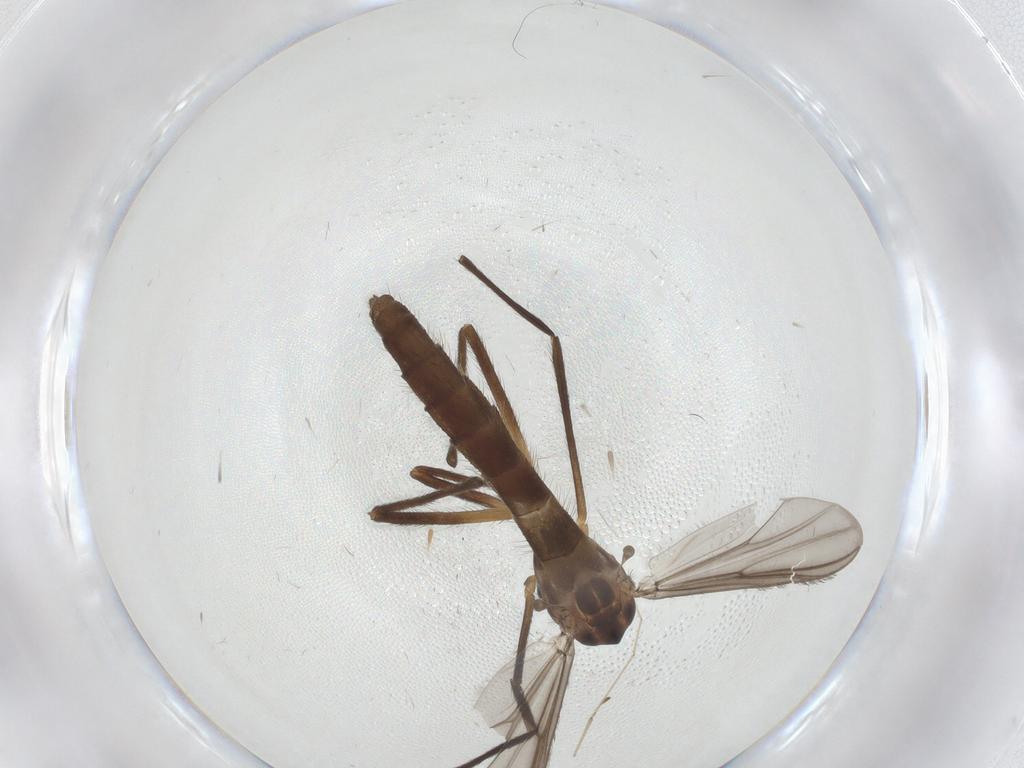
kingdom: Animalia
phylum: Arthropoda
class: Insecta
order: Diptera
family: Chironomidae
